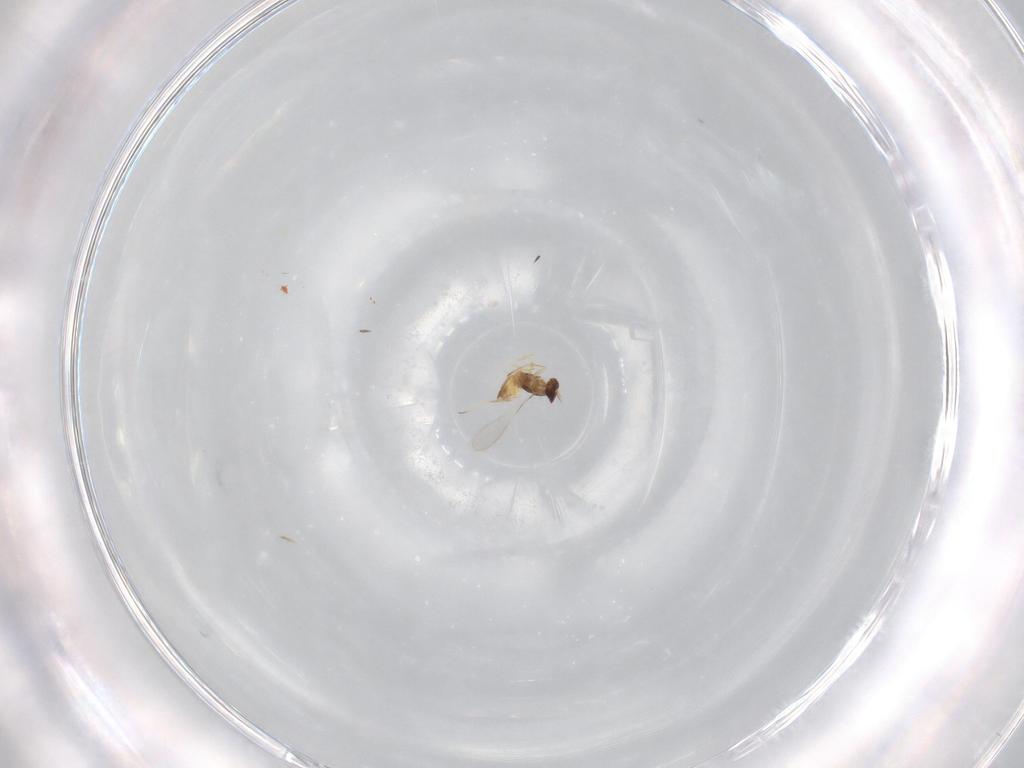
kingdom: Animalia
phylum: Arthropoda
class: Insecta
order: Hymenoptera
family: Mymaridae
